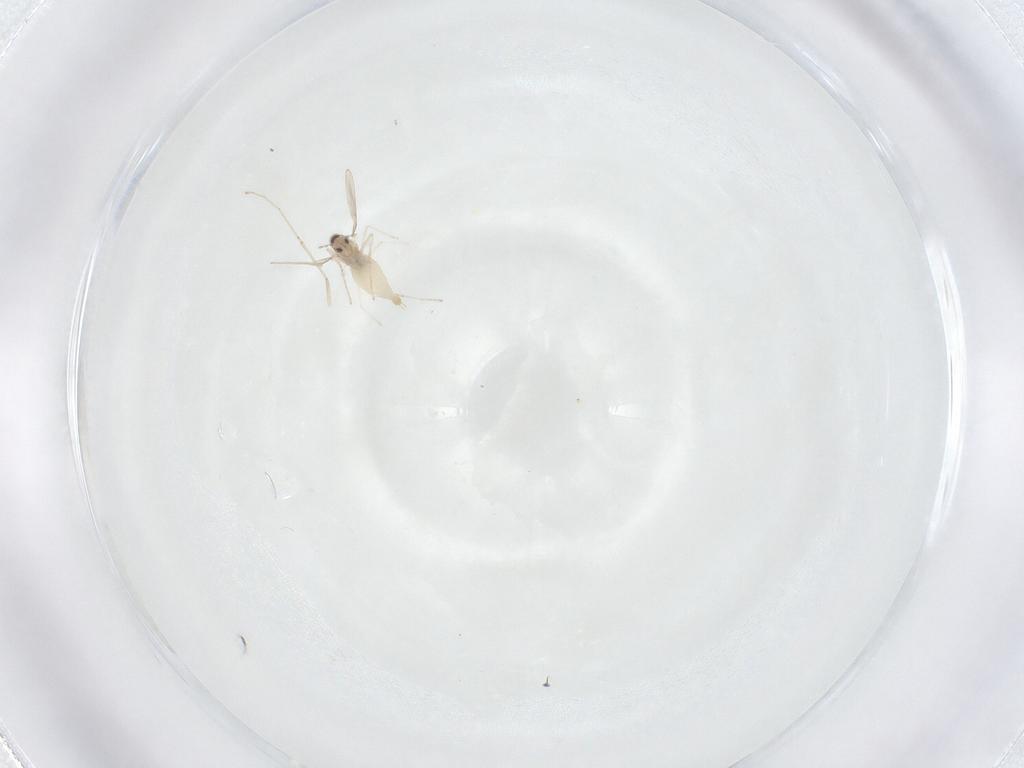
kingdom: Animalia
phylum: Arthropoda
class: Insecta
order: Diptera
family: Cecidomyiidae
